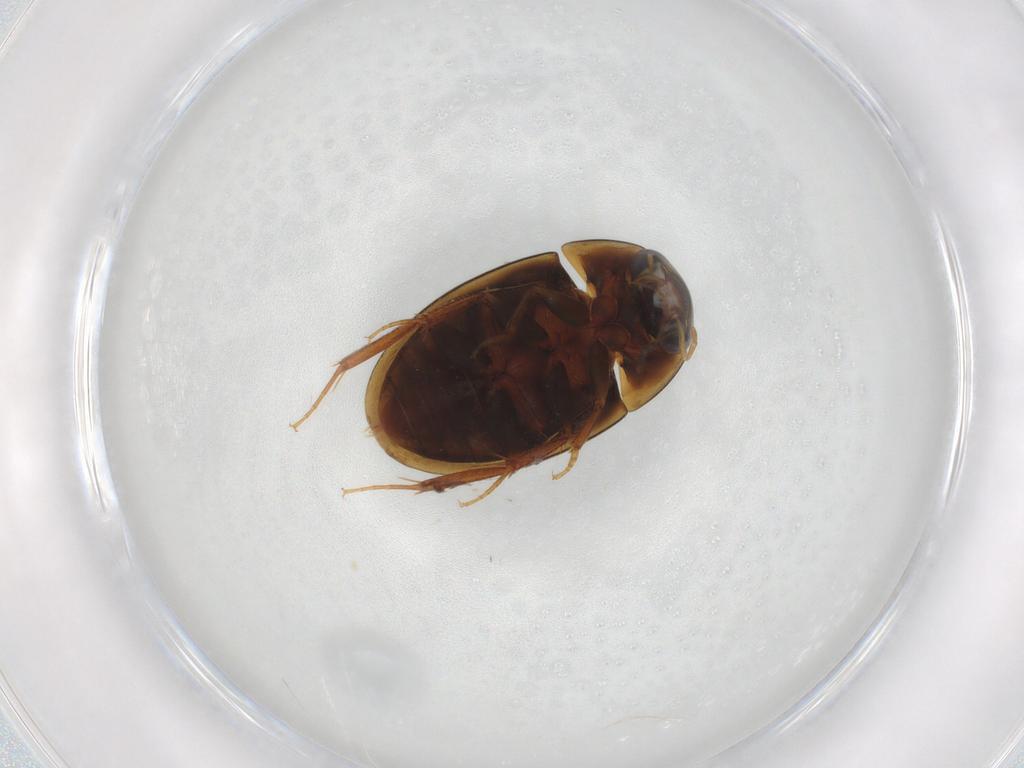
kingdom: Animalia
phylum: Arthropoda
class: Insecta
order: Coleoptera
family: Hydrophilidae
